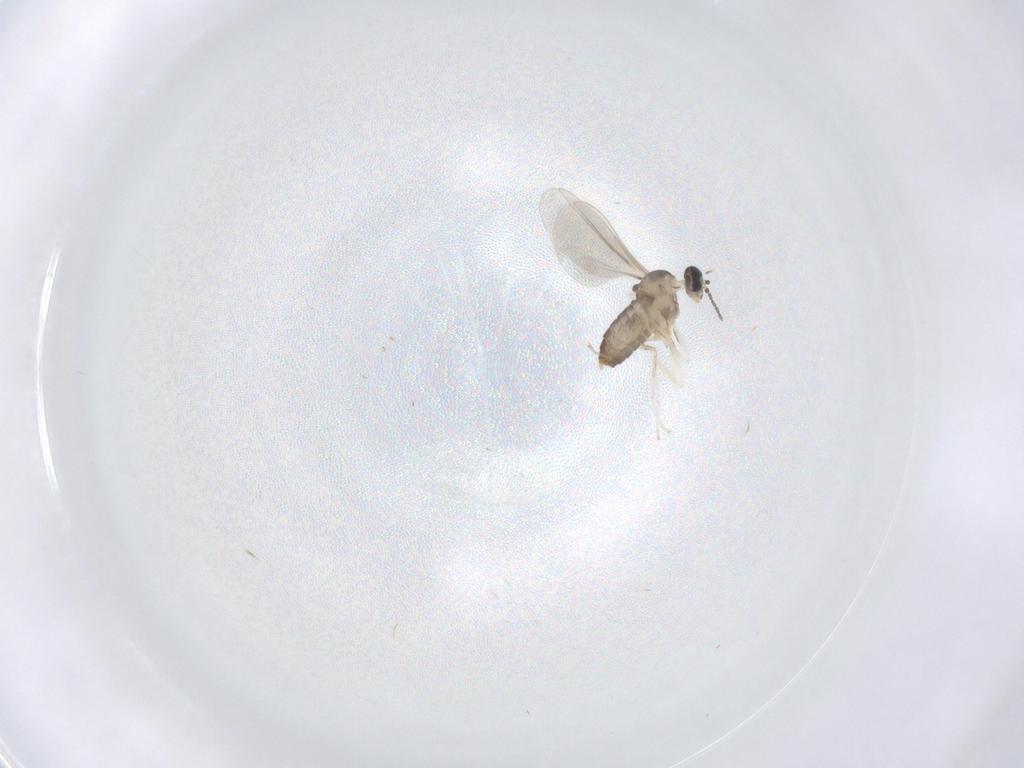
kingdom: Animalia
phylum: Arthropoda
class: Insecta
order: Diptera
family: Cecidomyiidae
